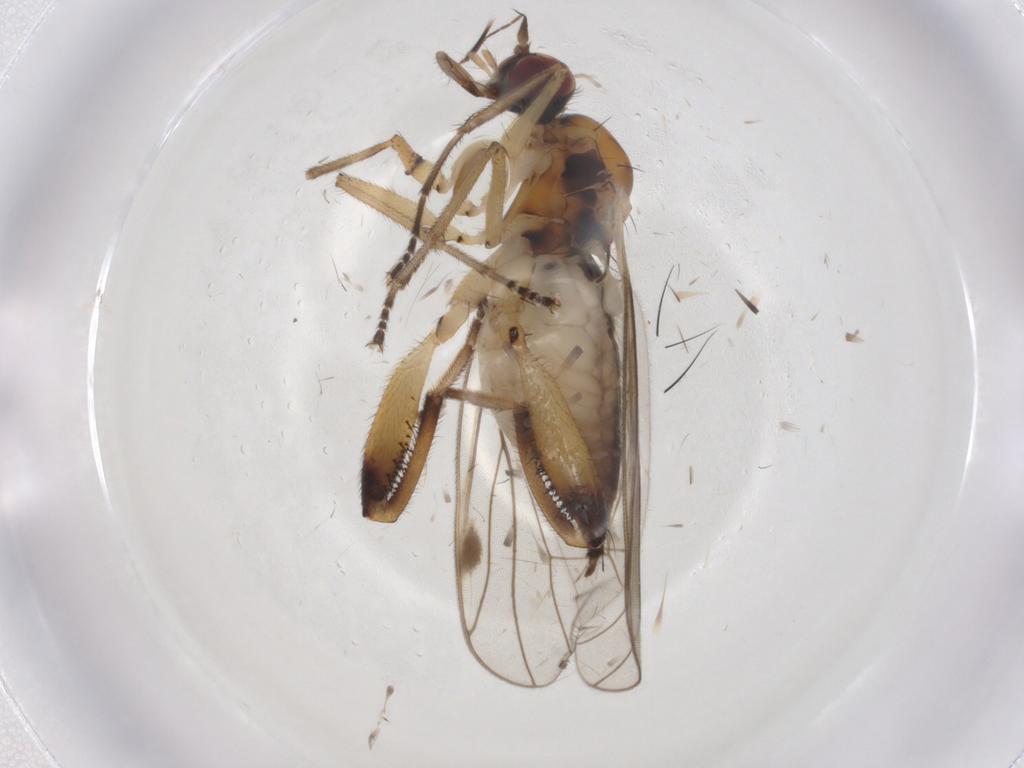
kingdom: Animalia
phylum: Arthropoda
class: Insecta
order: Diptera
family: Hybotidae
